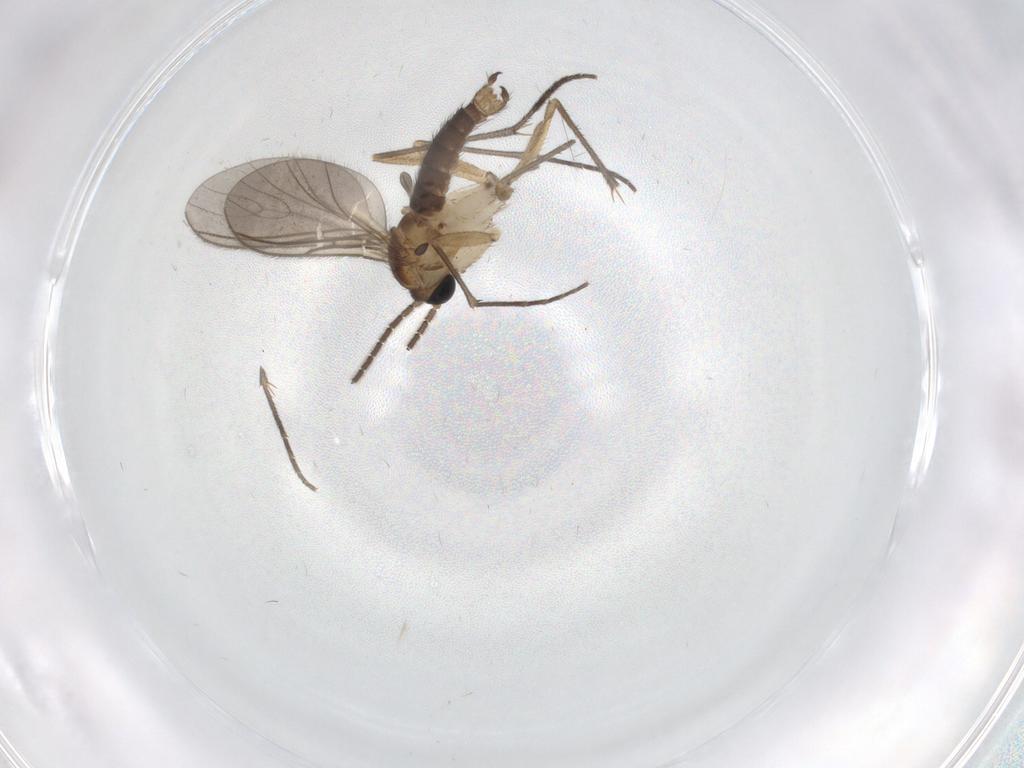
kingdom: Animalia
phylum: Arthropoda
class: Insecta
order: Diptera
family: Sciaridae
